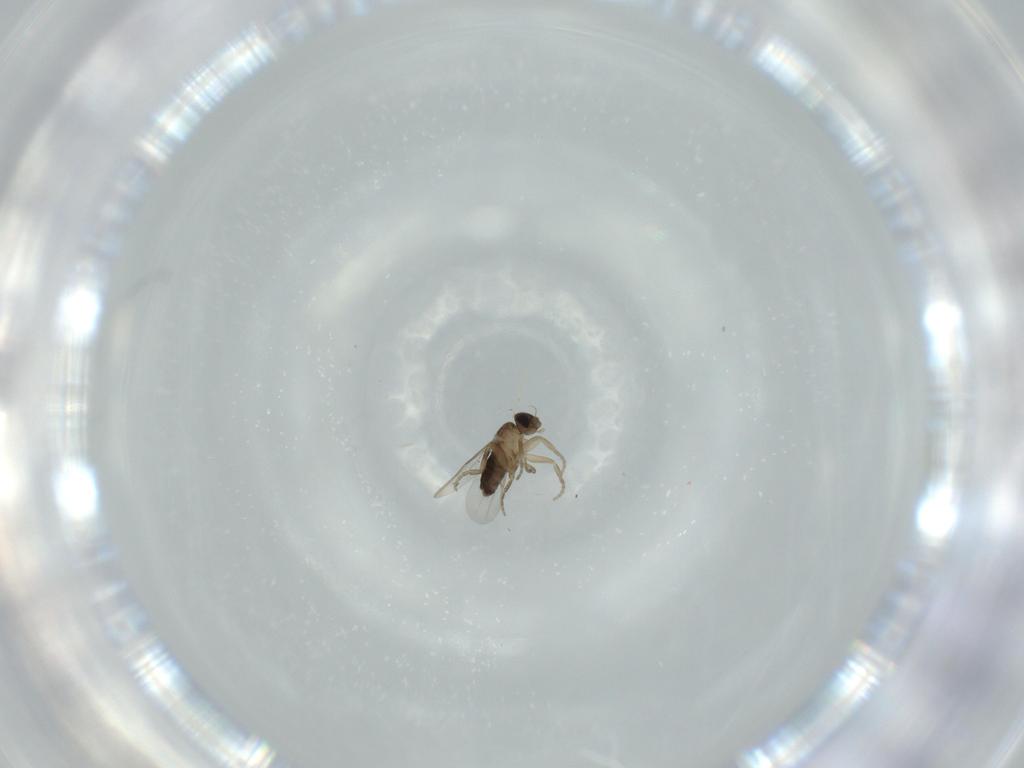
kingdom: Animalia
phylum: Arthropoda
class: Insecta
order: Diptera
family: Phoridae
